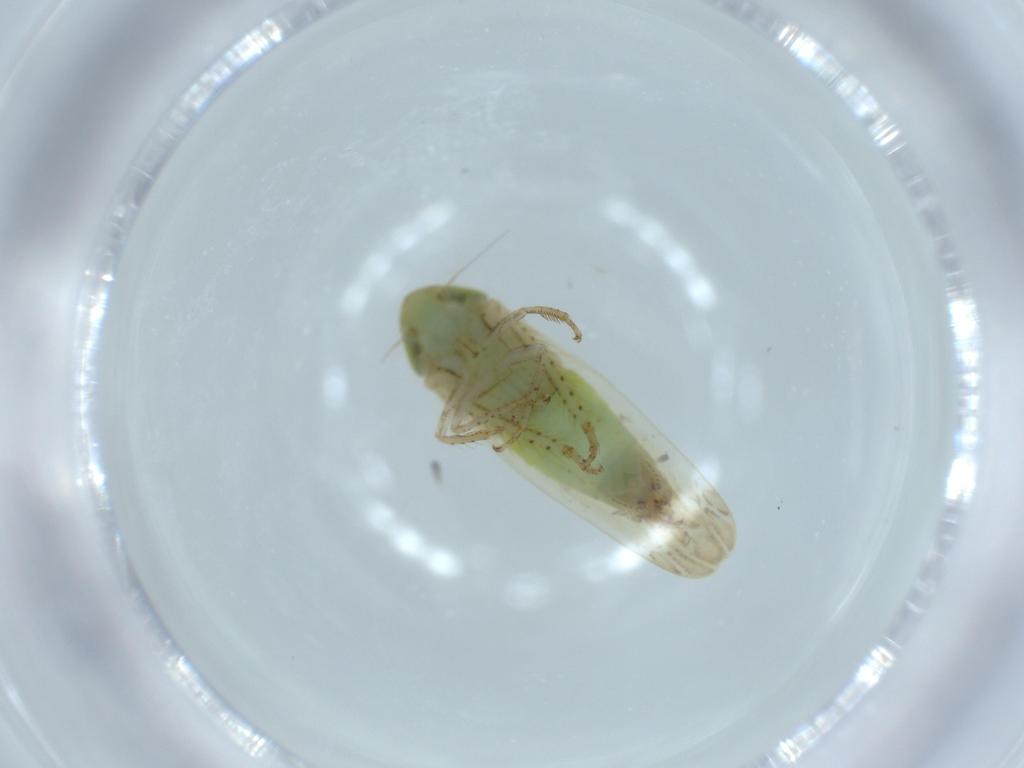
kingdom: Animalia
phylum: Arthropoda
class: Insecta
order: Hemiptera
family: Cicadellidae
